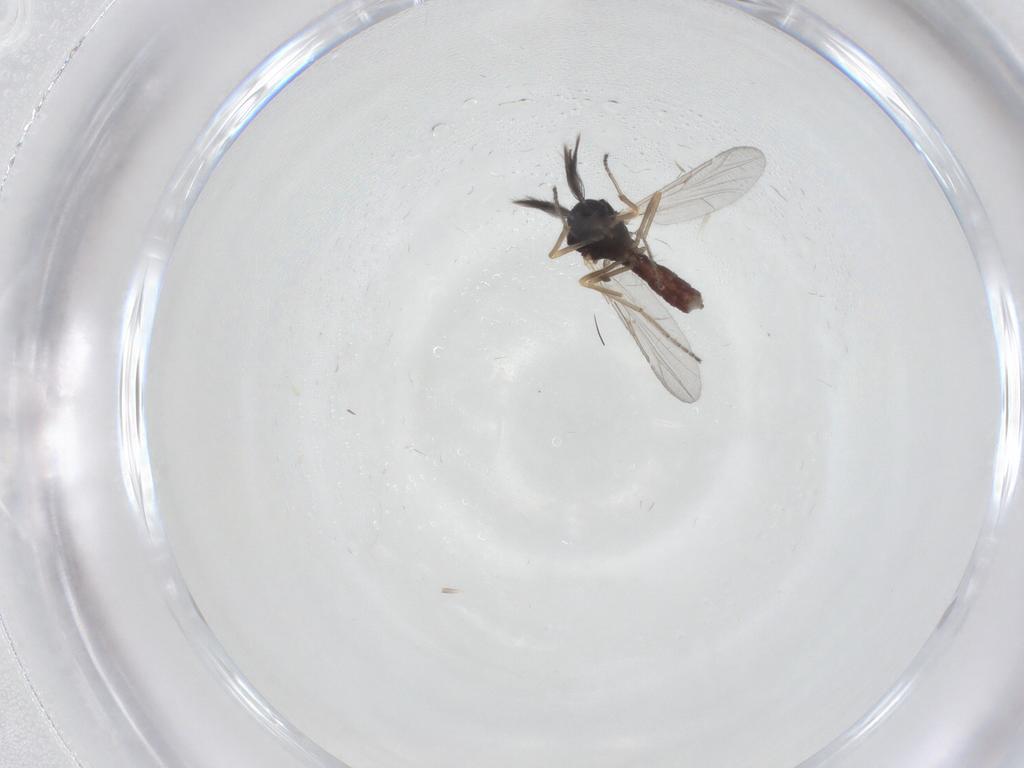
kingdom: Animalia
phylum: Arthropoda
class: Insecta
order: Diptera
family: Ceratopogonidae
